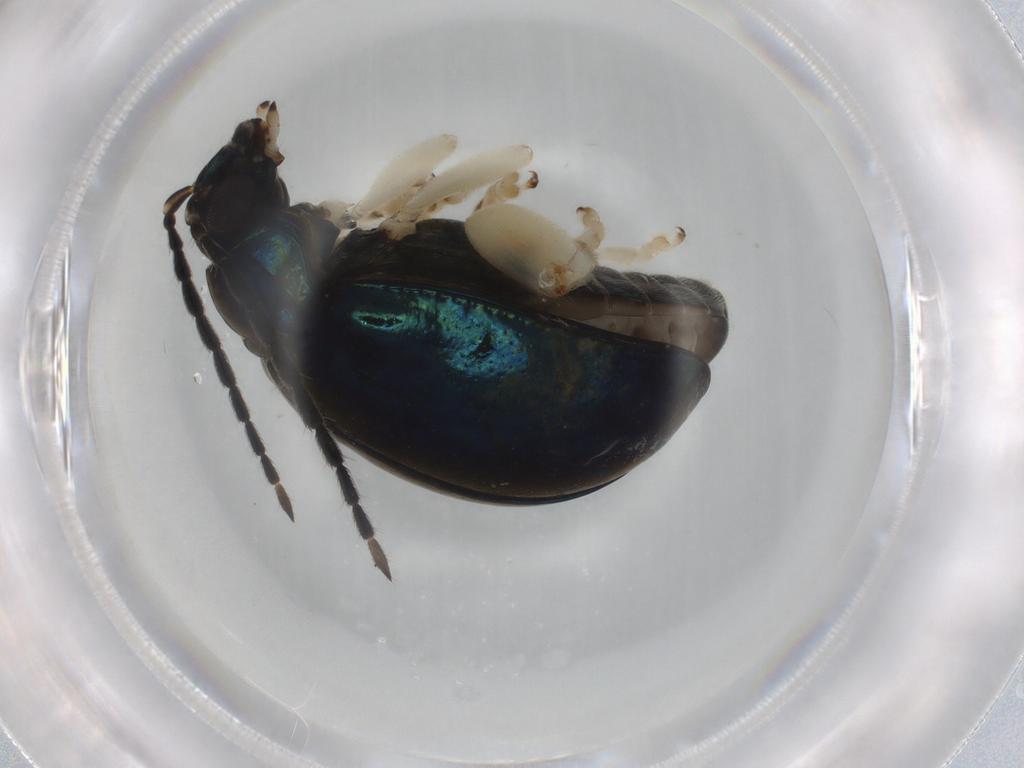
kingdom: Animalia
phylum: Arthropoda
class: Insecta
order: Coleoptera
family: Chrysomelidae
